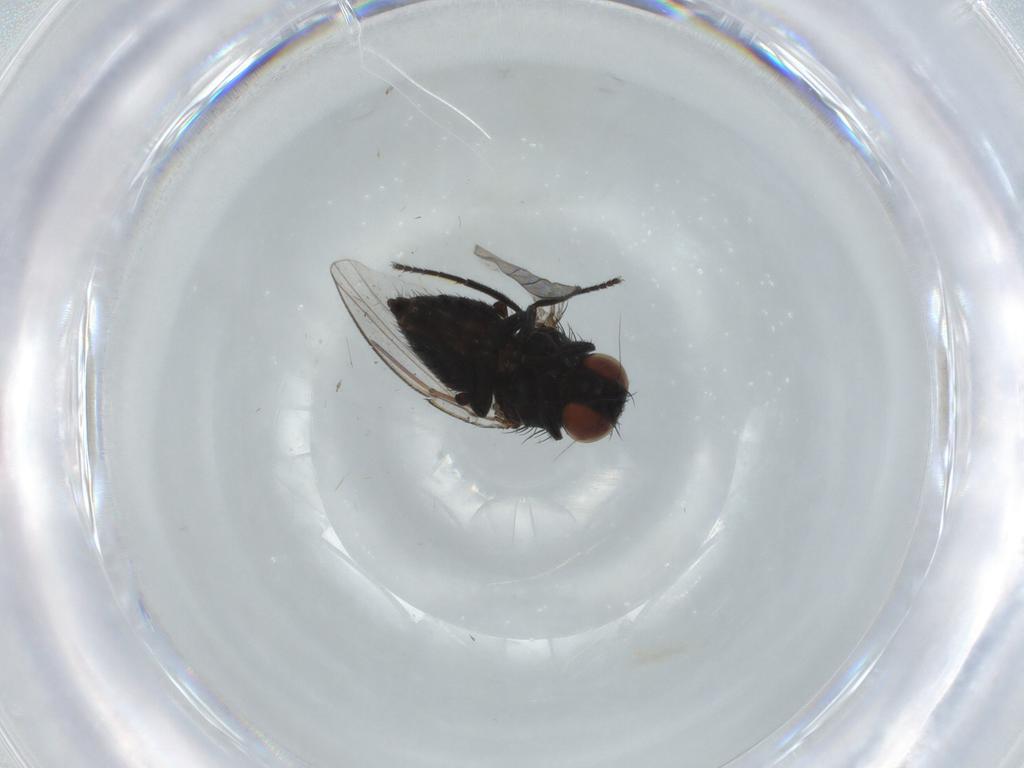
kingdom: Animalia
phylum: Arthropoda
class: Insecta
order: Diptera
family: Milichiidae
